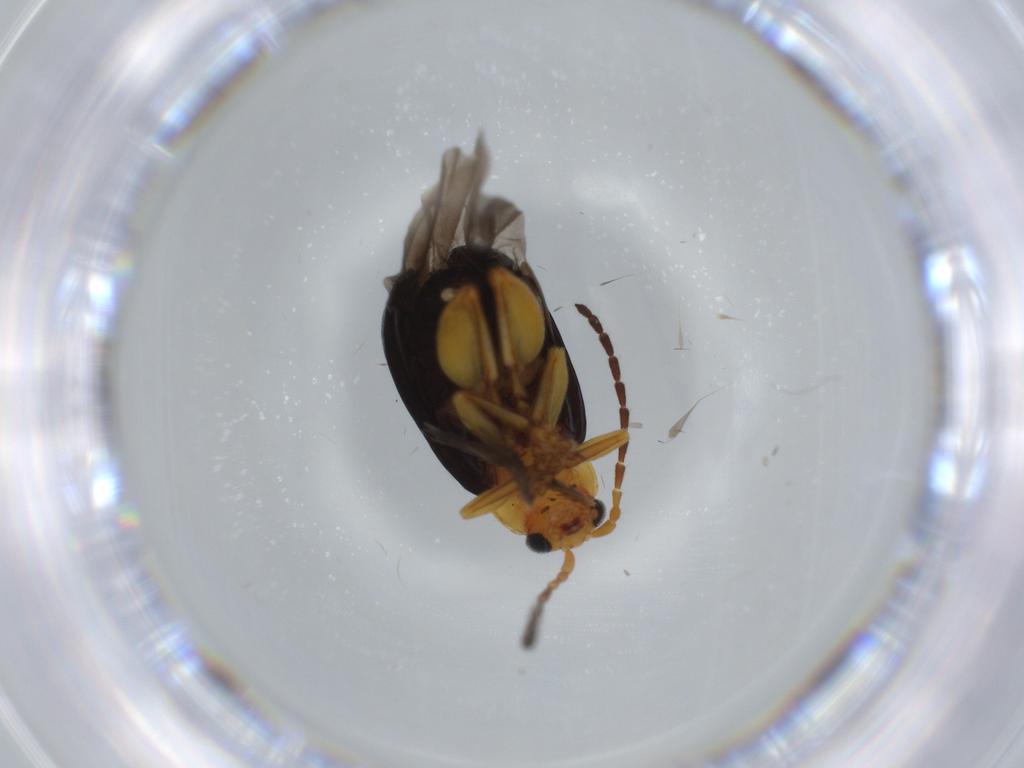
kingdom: Animalia
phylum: Arthropoda
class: Insecta
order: Coleoptera
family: Chrysomelidae
